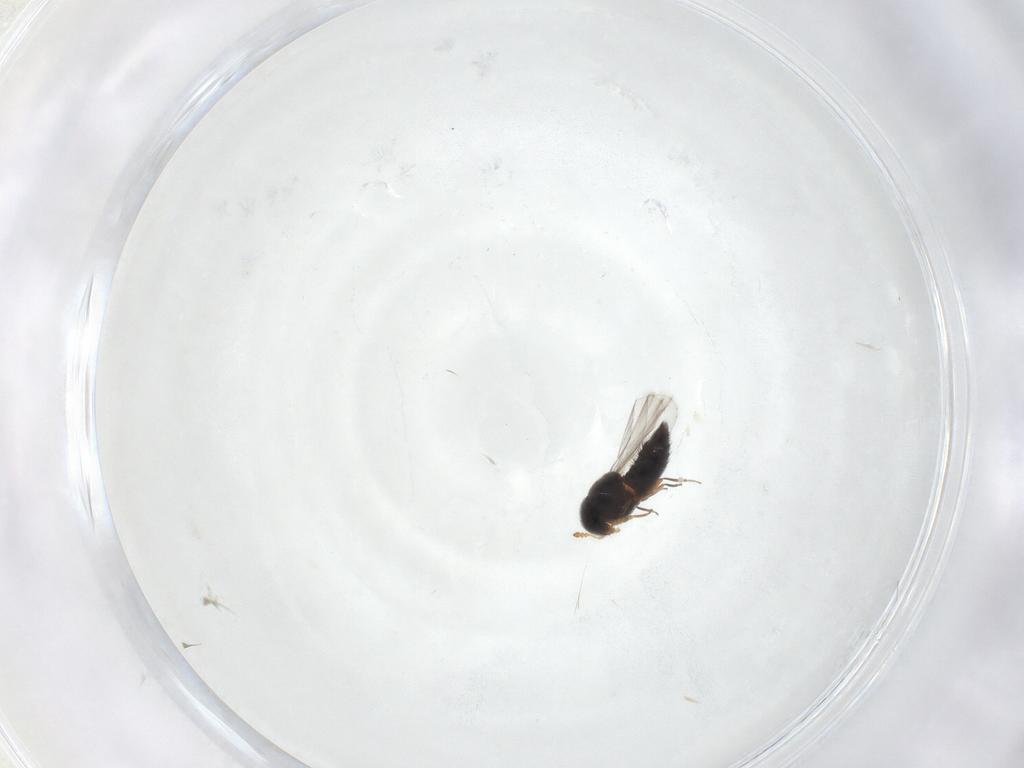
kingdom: Animalia
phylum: Arthropoda
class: Insecta
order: Coleoptera
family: Staphylinidae
